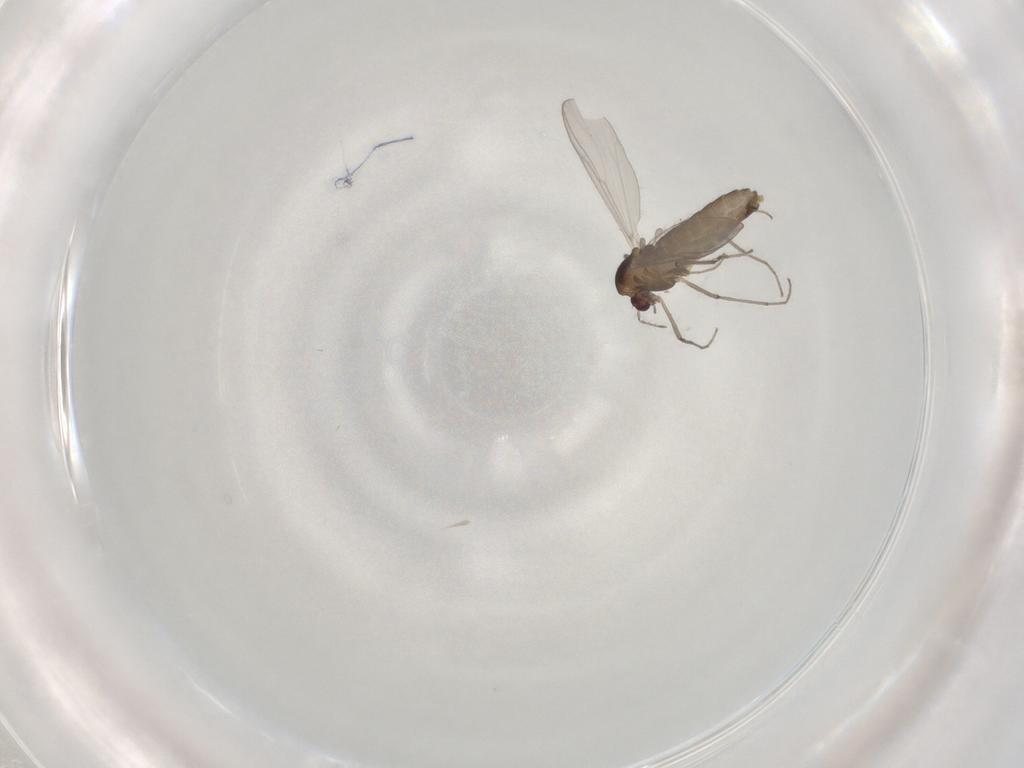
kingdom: Animalia
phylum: Arthropoda
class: Insecta
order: Diptera
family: Chironomidae
